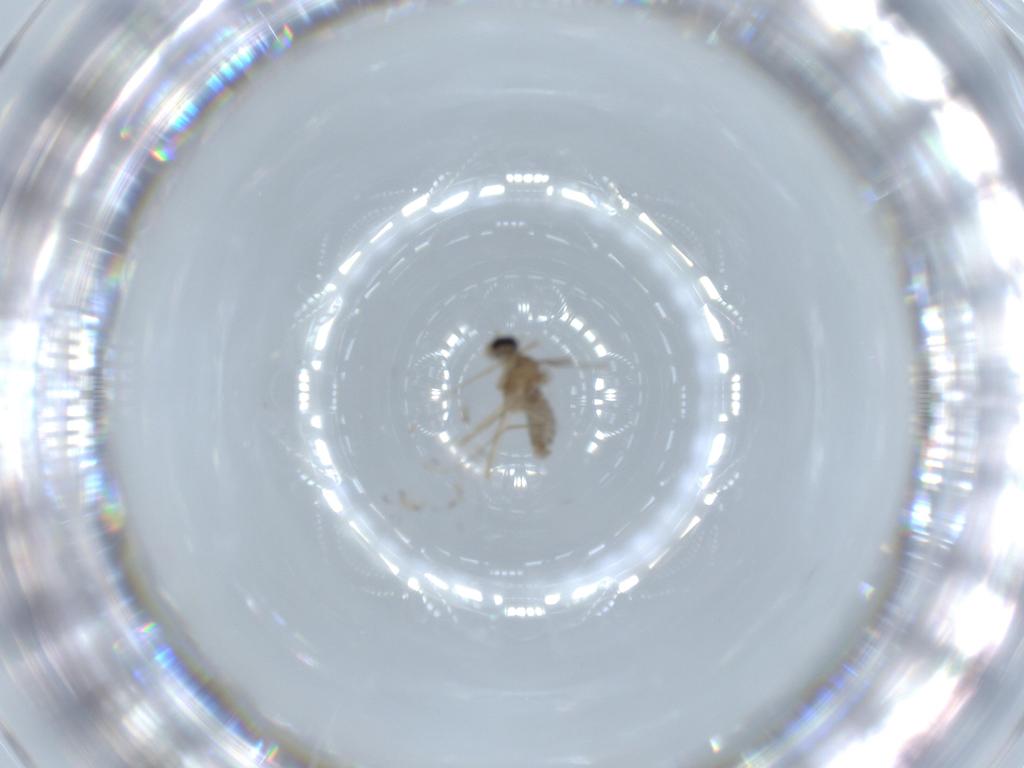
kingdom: Animalia
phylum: Arthropoda
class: Insecta
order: Diptera
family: Cecidomyiidae
